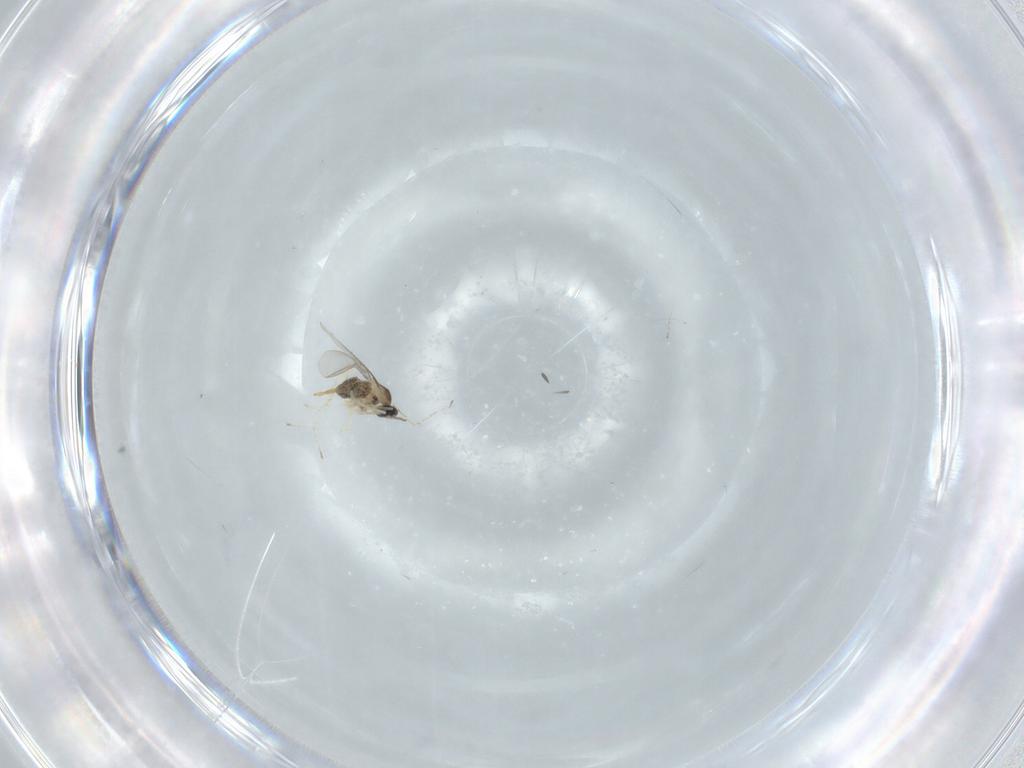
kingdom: Animalia
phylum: Arthropoda
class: Insecta
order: Diptera
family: Cecidomyiidae
